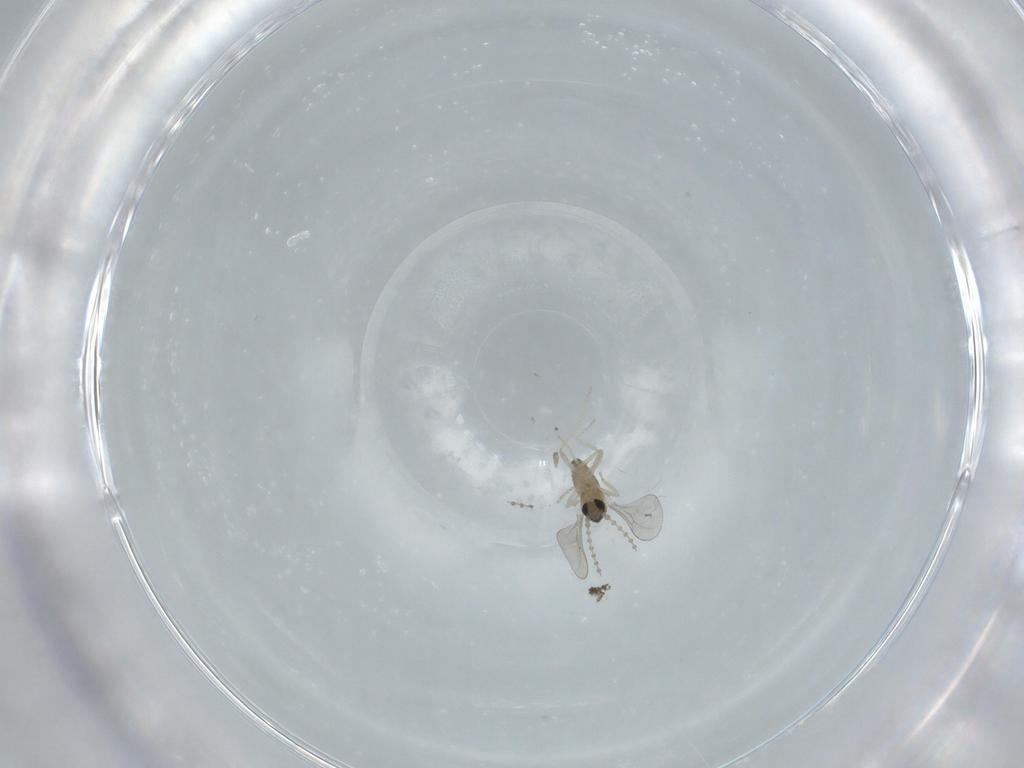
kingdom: Animalia
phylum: Arthropoda
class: Insecta
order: Diptera
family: Chironomidae
